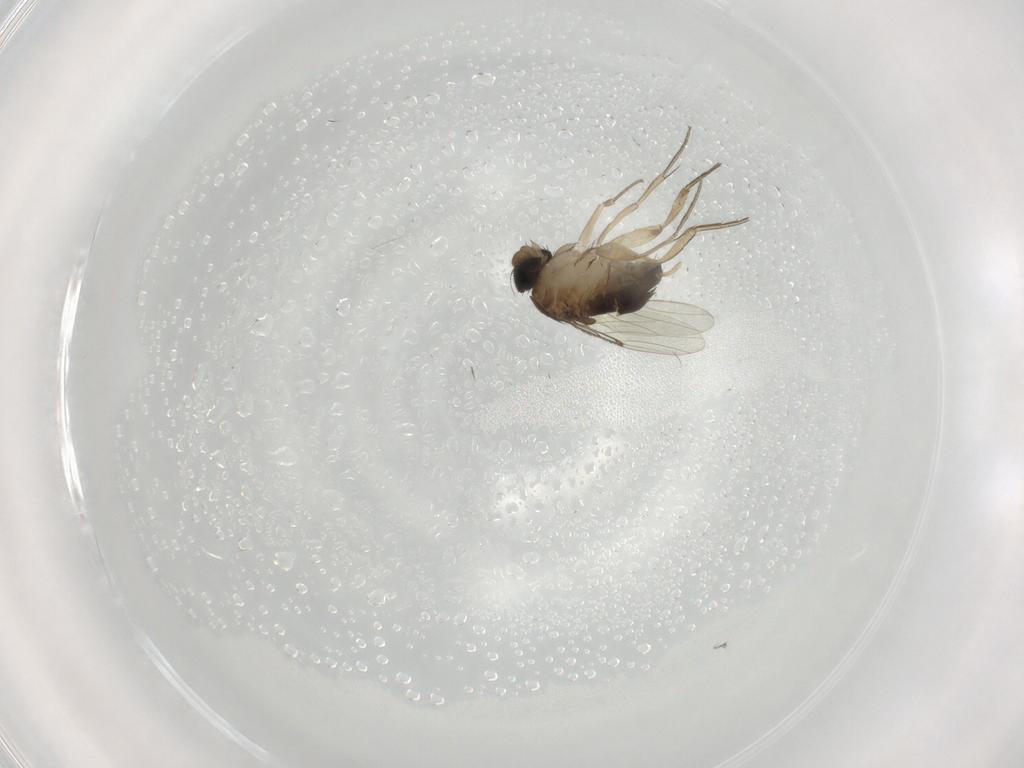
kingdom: Animalia
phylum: Arthropoda
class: Insecta
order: Diptera
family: Phoridae
